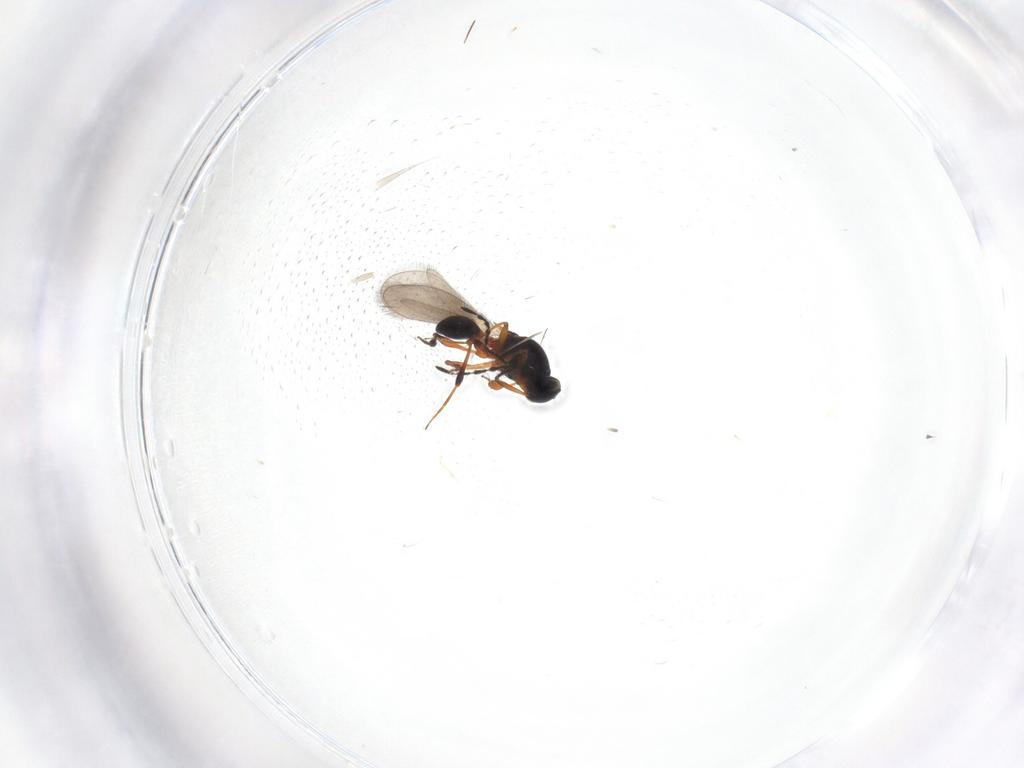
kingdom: Animalia
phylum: Arthropoda
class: Insecta
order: Hymenoptera
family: Platygastridae
